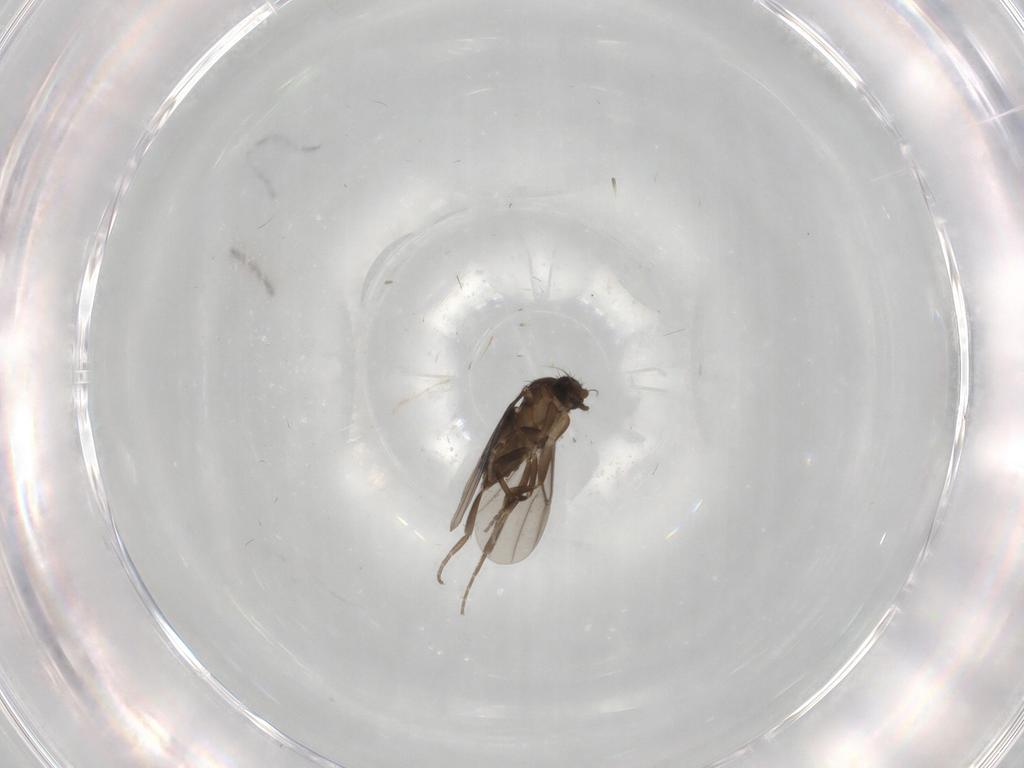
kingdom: Animalia
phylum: Arthropoda
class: Insecta
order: Diptera
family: Phoridae
